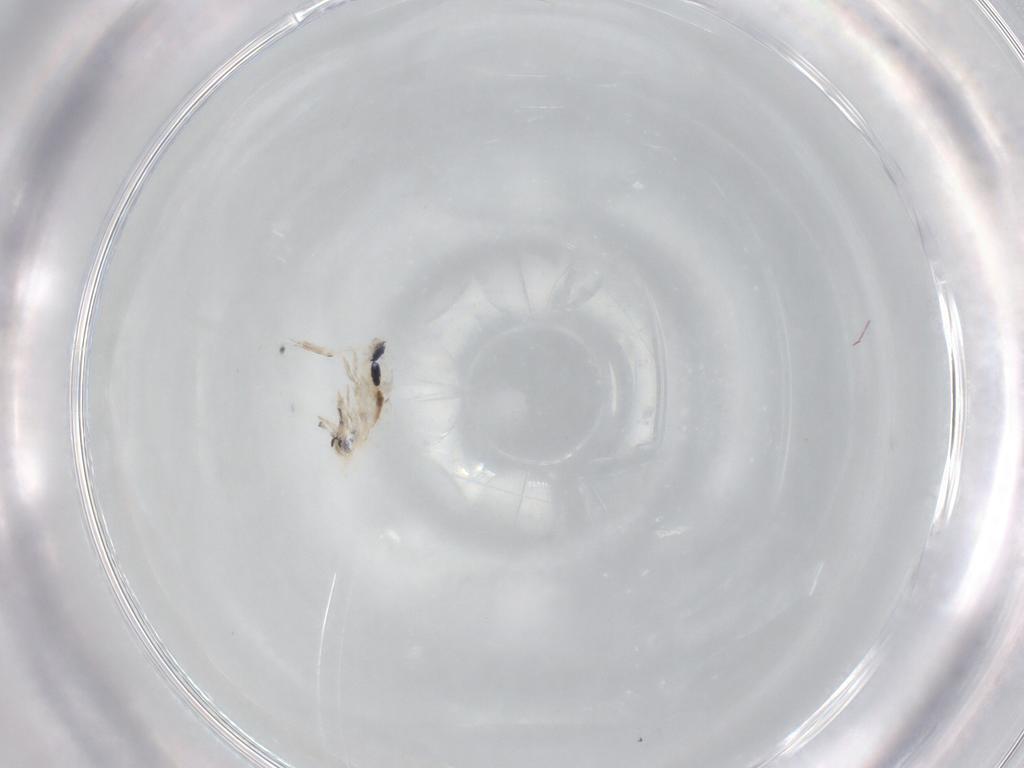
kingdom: Animalia
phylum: Arthropoda
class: Collembola
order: Entomobryomorpha
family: Entomobryidae
